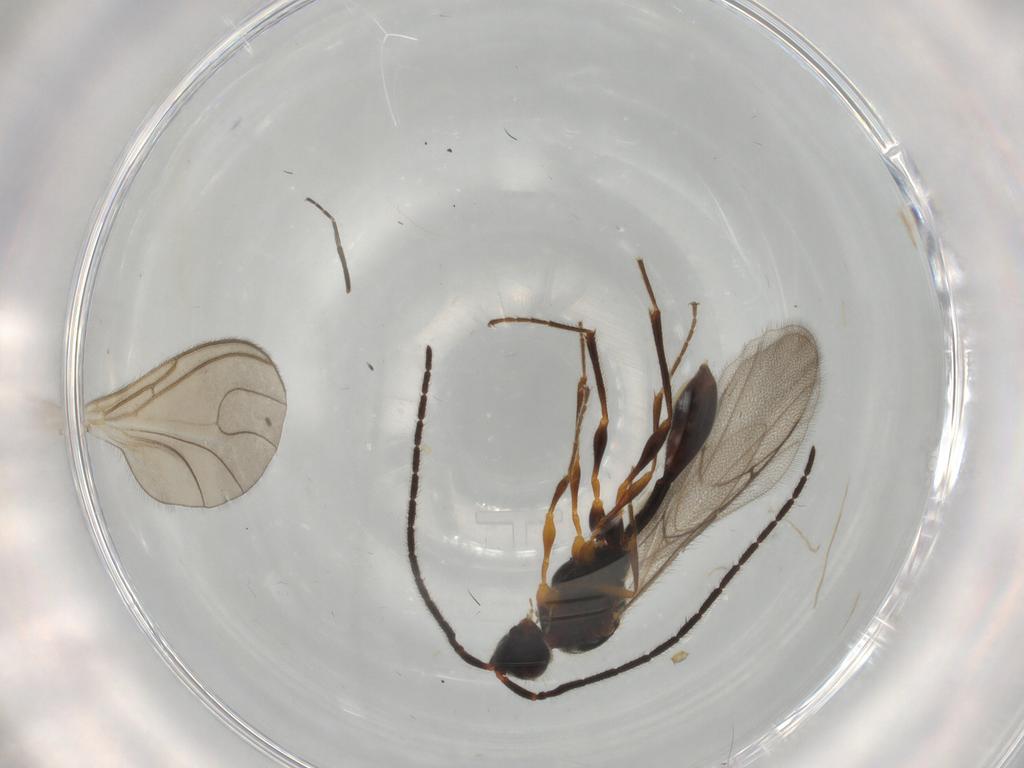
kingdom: Animalia
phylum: Arthropoda
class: Insecta
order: Hymenoptera
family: Diapriidae
